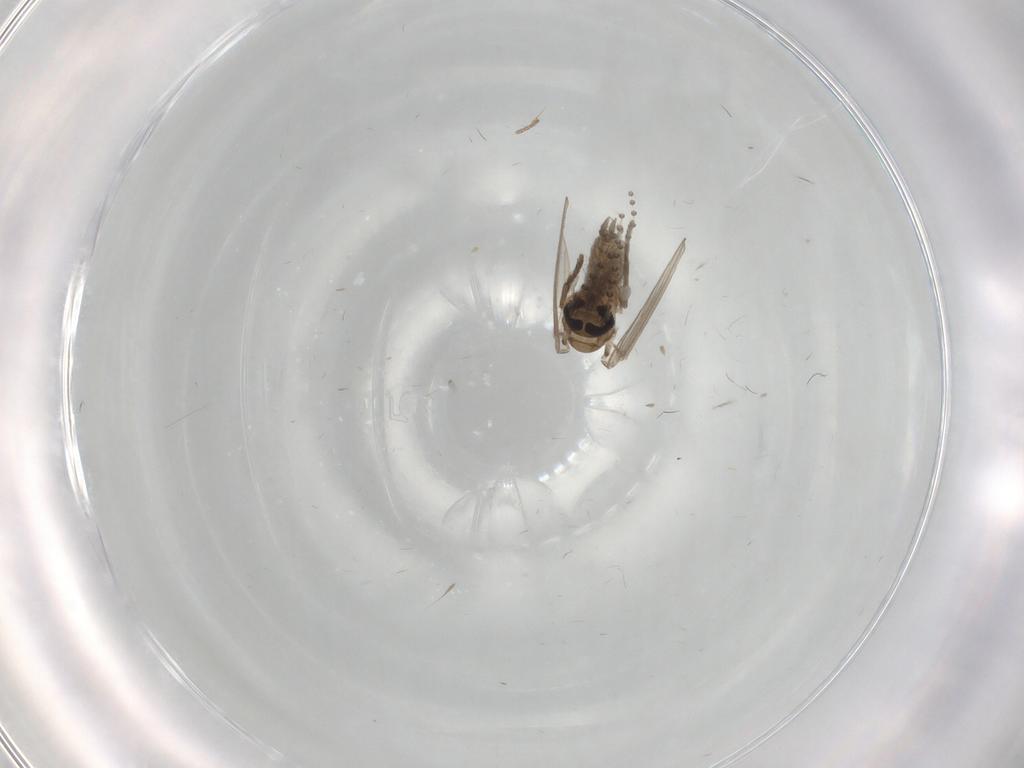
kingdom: Animalia
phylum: Arthropoda
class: Insecta
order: Diptera
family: Psychodidae
